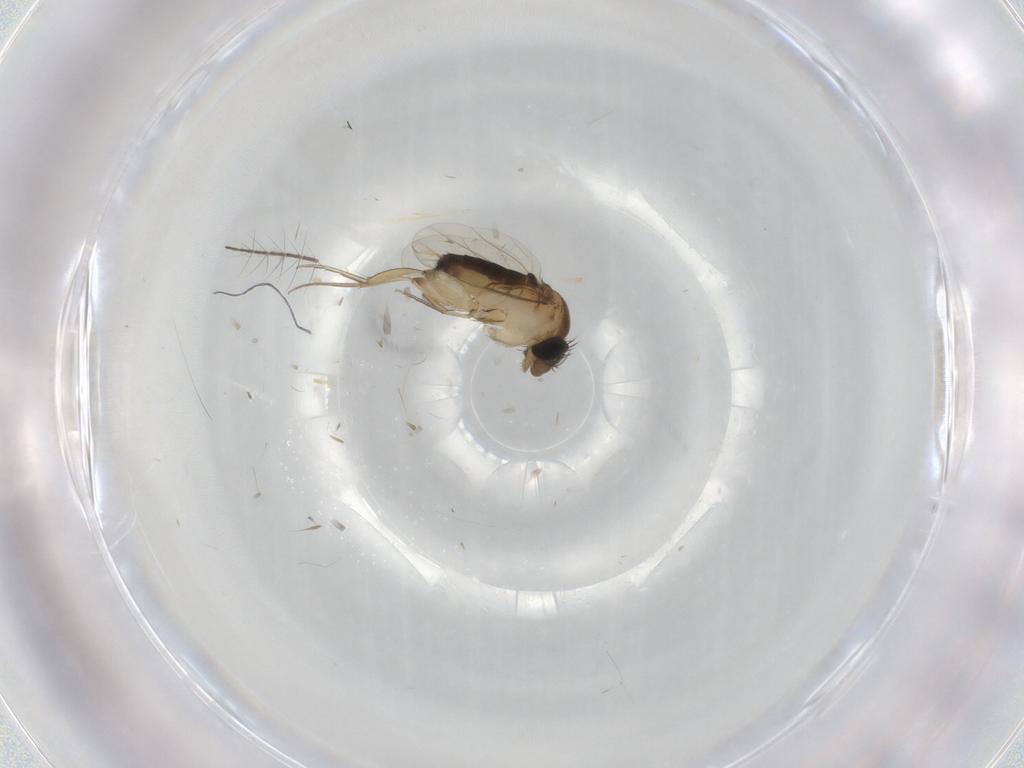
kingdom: Animalia
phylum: Arthropoda
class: Insecta
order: Diptera
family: Phoridae
